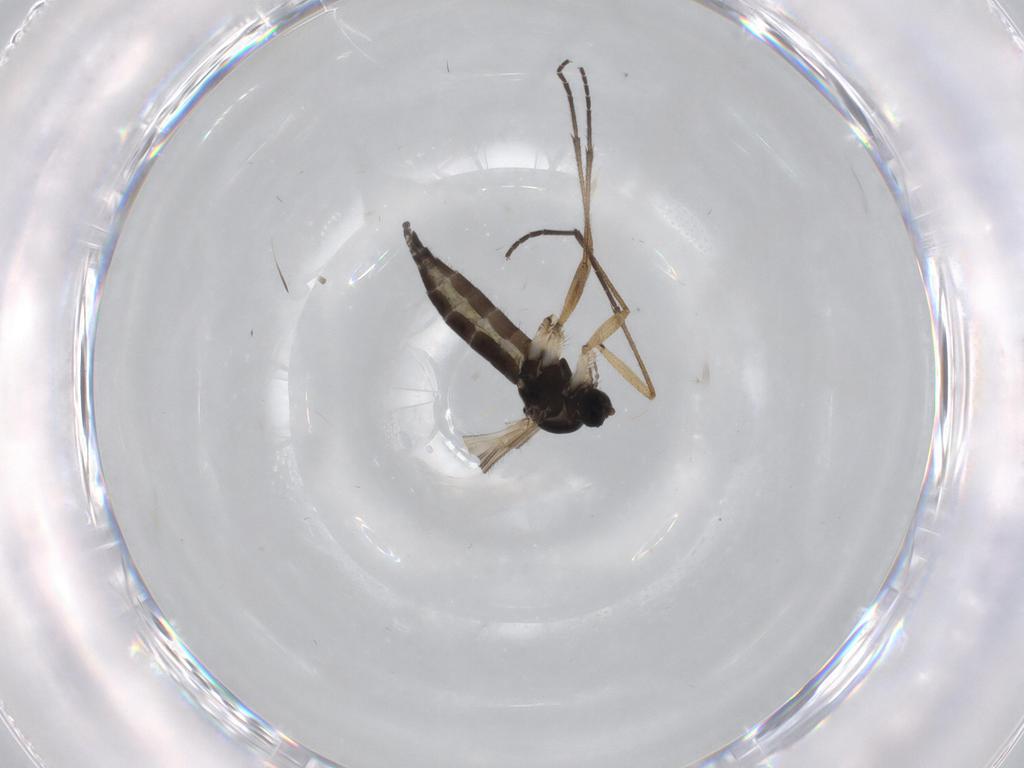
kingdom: Animalia
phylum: Arthropoda
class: Insecta
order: Diptera
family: Sciaridae
